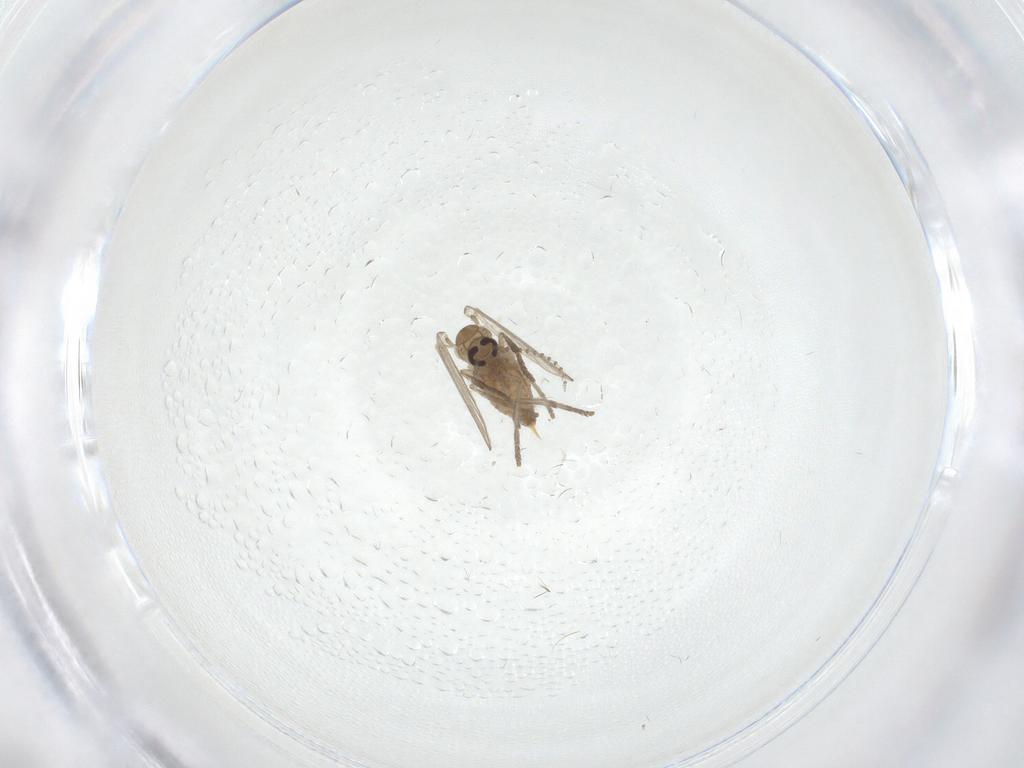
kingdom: Animalia
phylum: Arthropoda
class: Insecta
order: Diptera
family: Psychodidae
